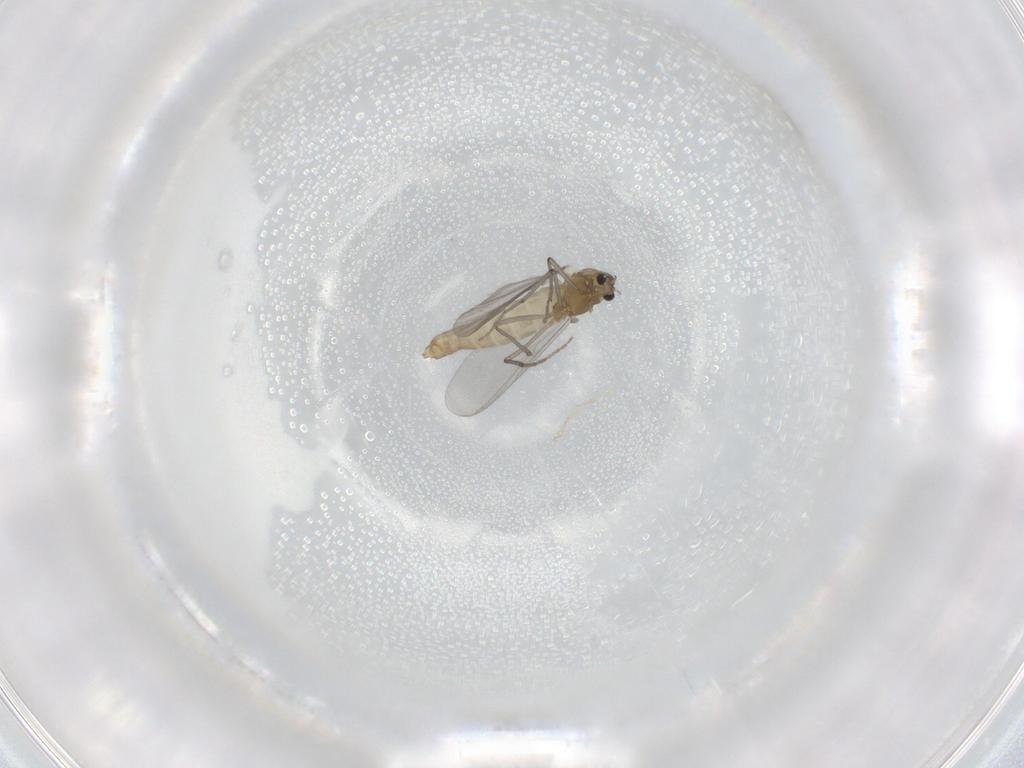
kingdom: Animalia
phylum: Arthropoda
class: Insecta
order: Diptera
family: Chironomidae
